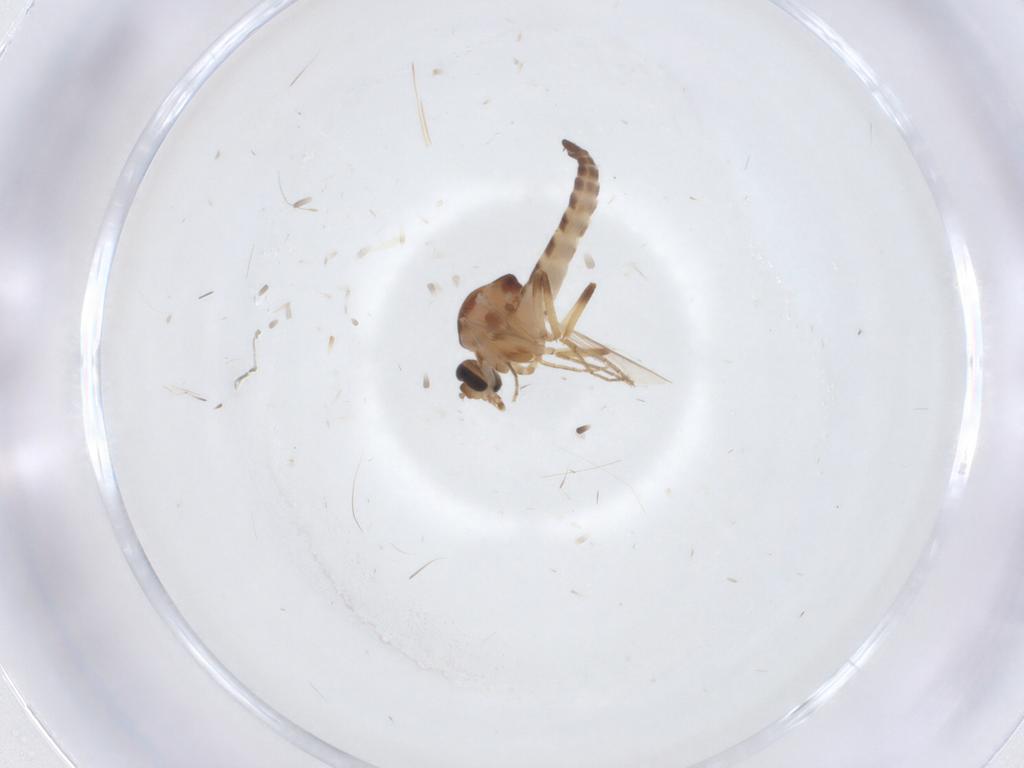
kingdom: Animalia
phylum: Arthropoda
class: Insecta
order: Diptera
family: Ceratopogonidae
